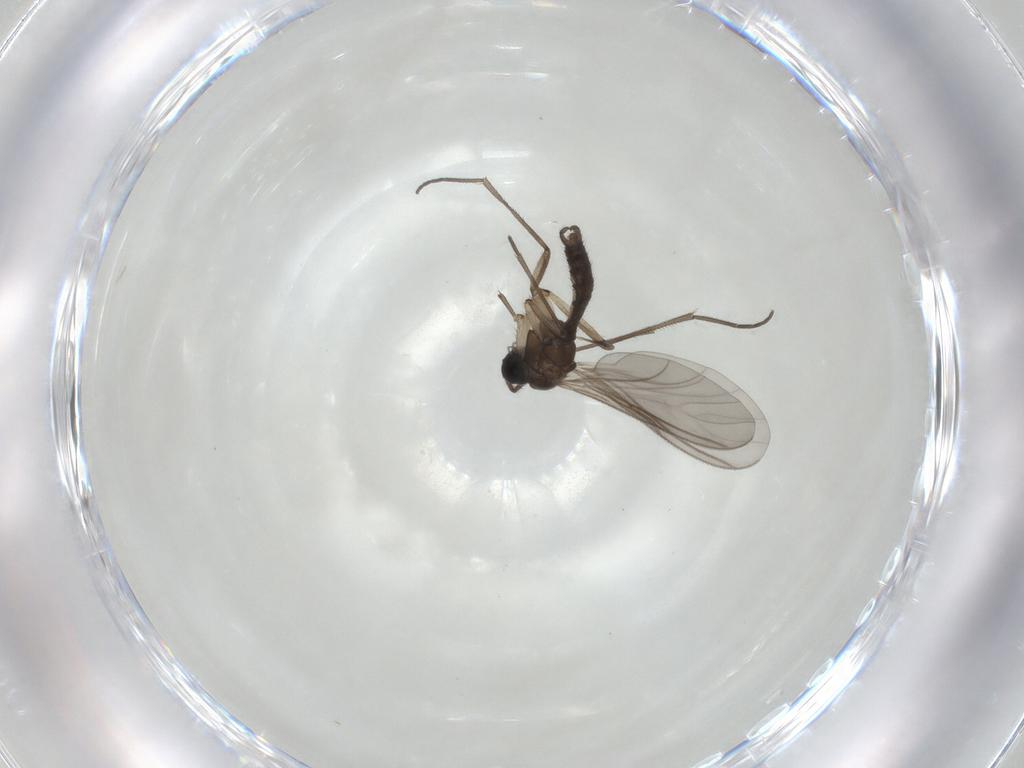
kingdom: Animalia
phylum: Arthropoda
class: Insecta
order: Diptera
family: Sciaridae
